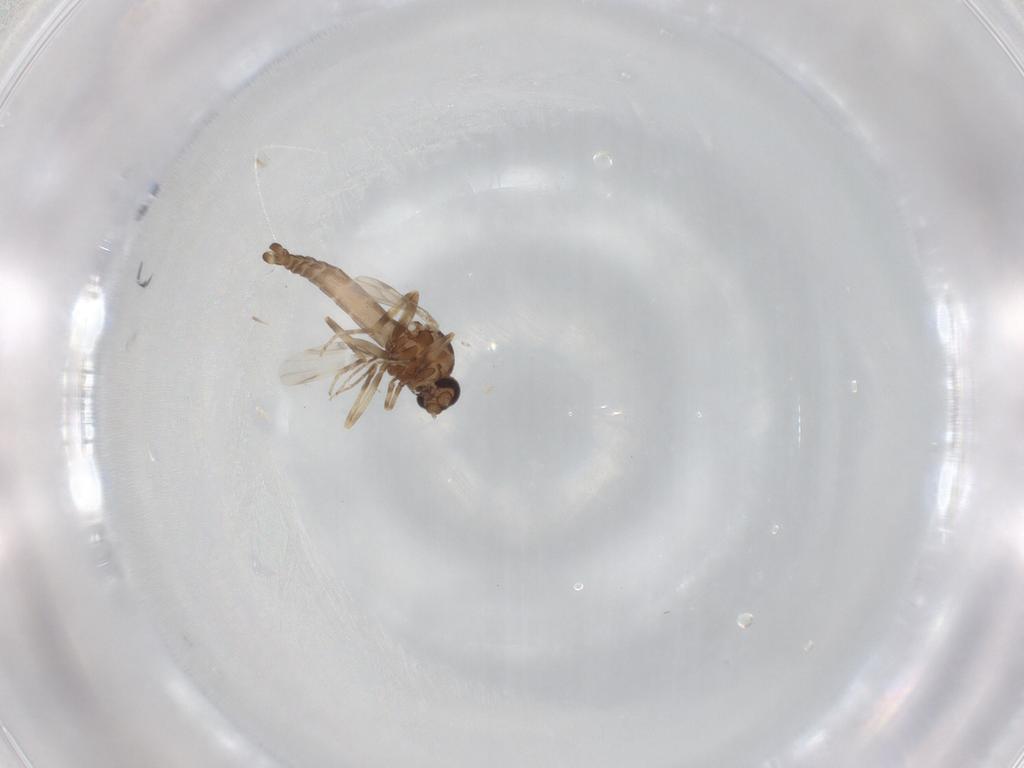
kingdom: Animalia
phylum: Arthropoda
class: Insecta
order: Diptera
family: Ceratopogonidae
